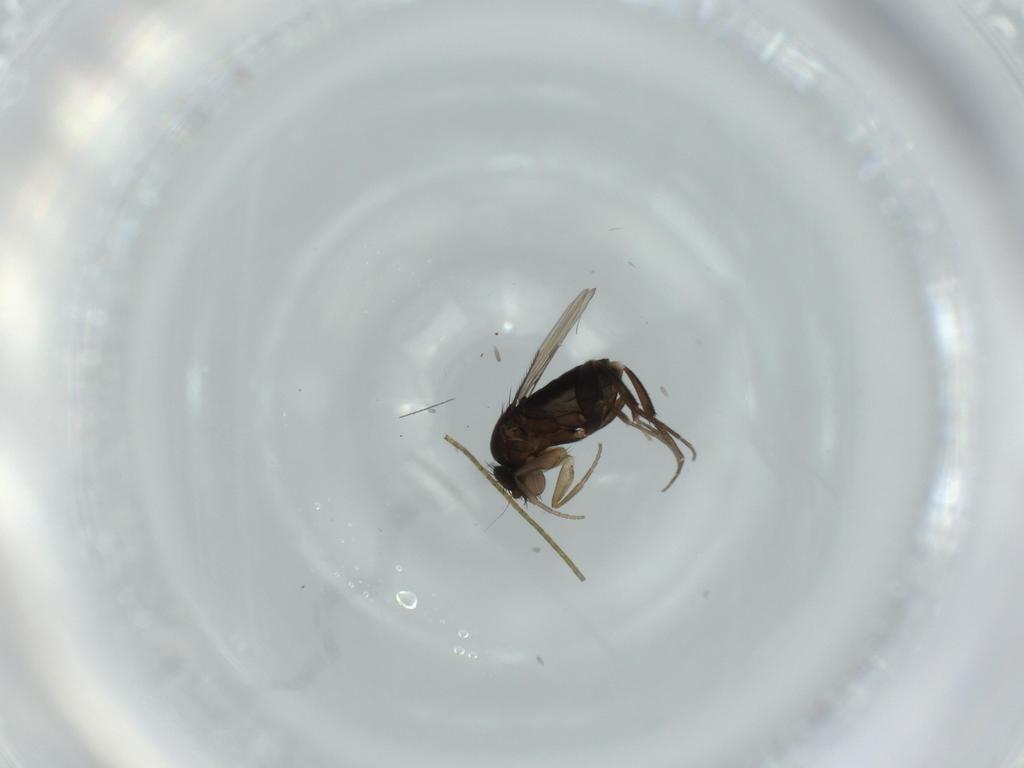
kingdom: Animalia
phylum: Arthropoda
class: Insecta
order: Diptera
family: Phoridae
